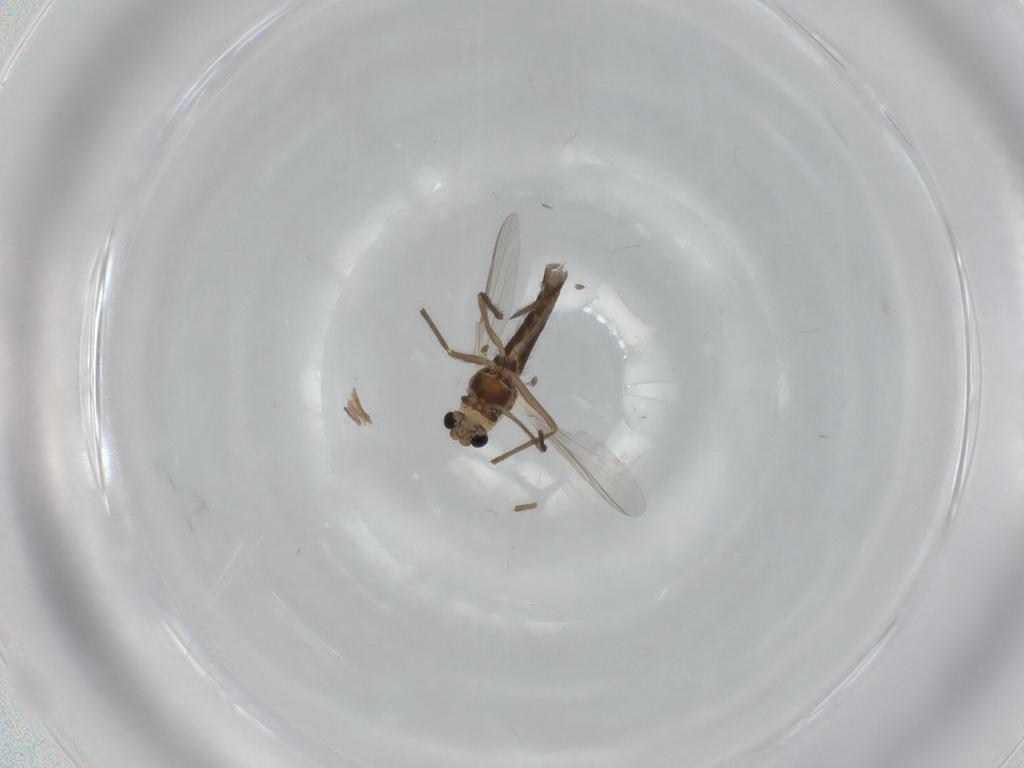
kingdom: Animalia
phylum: Arthropoda
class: Insecta
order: Diptera
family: Chironomidae
